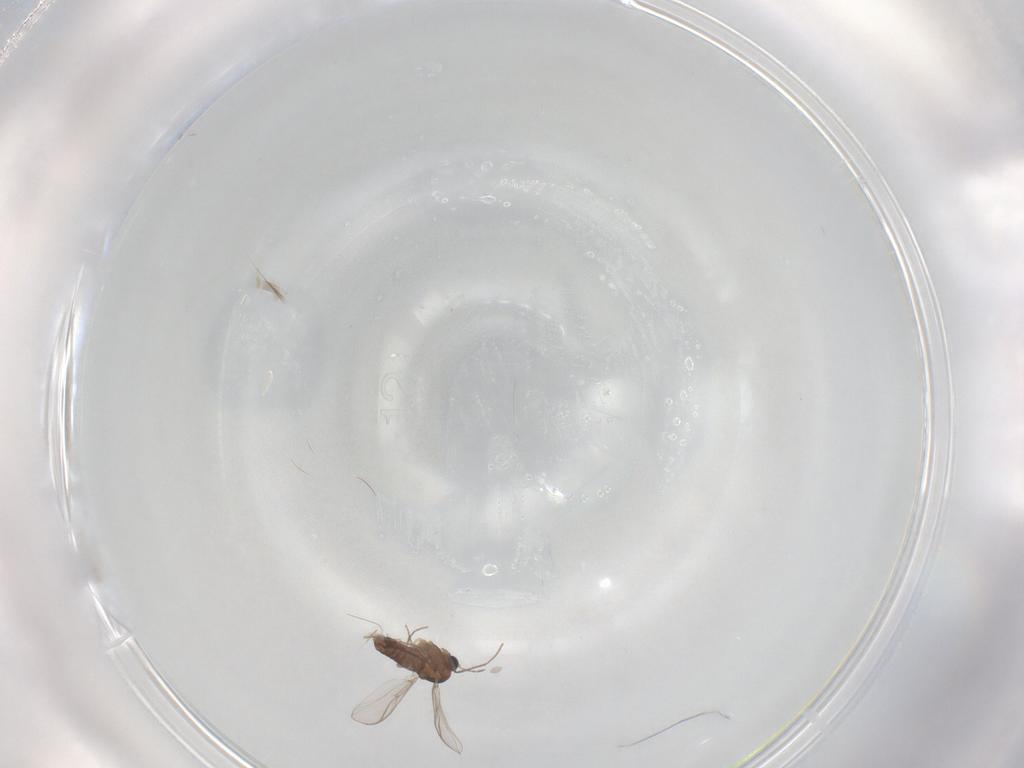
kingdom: Animalia
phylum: Arthropoda
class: Insecta
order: Diptera
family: Chironomidae
